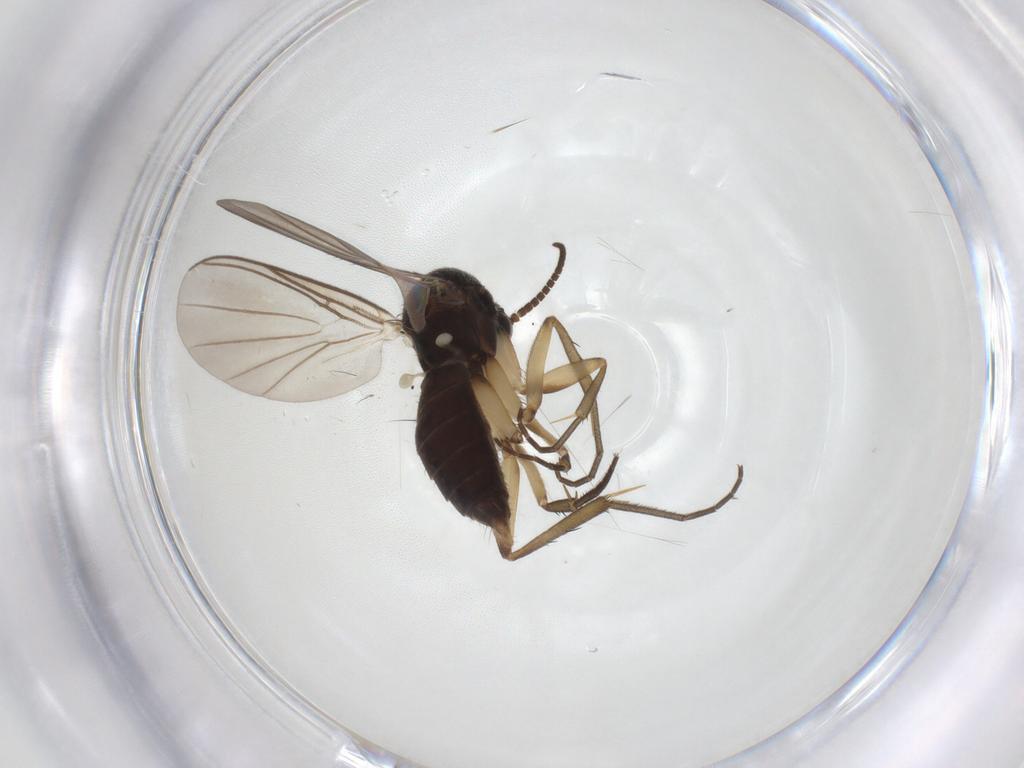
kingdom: Animalia
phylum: Arthropoda
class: Insecta
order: Diptera
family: Mycetophilidae
